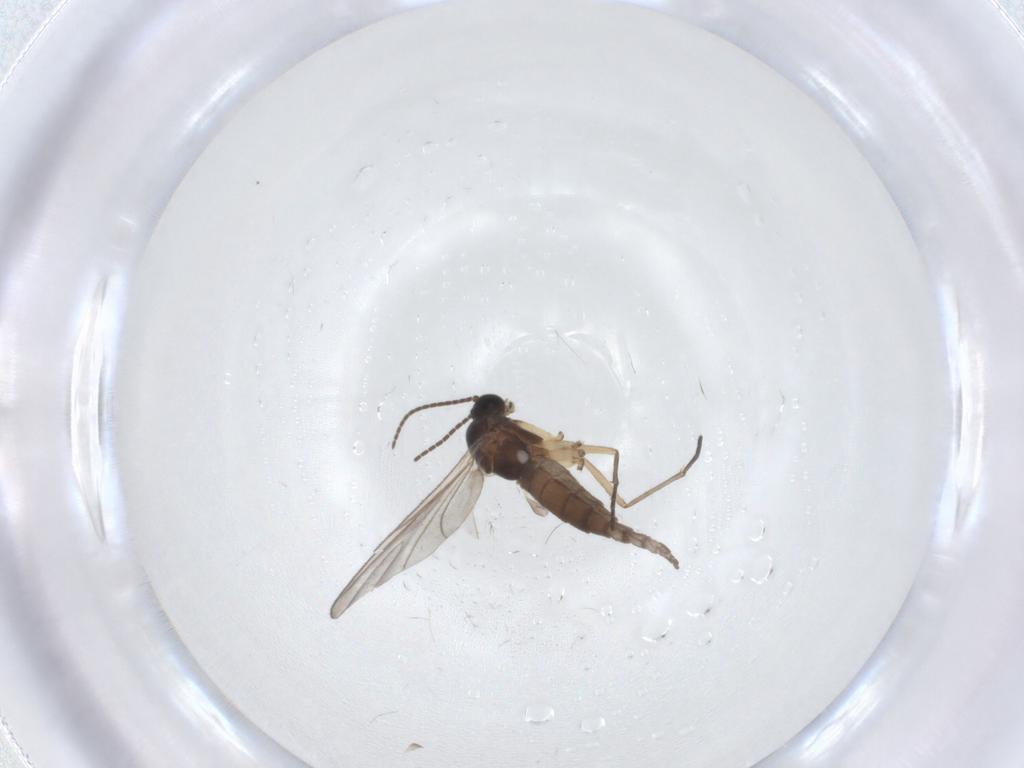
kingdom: Animalia
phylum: Arthropoda
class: Insecta
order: Diptera
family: Sciaridae
